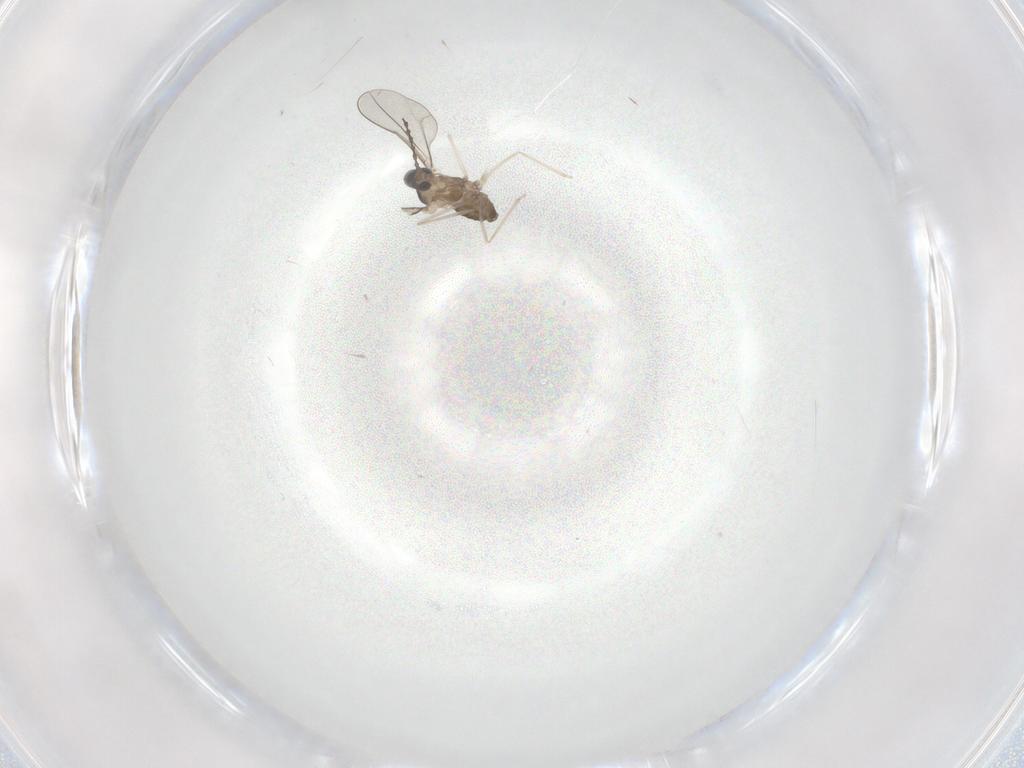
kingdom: Animalia
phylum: Arthropoda
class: Insecta
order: Diptera
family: Cecidomyiidae
